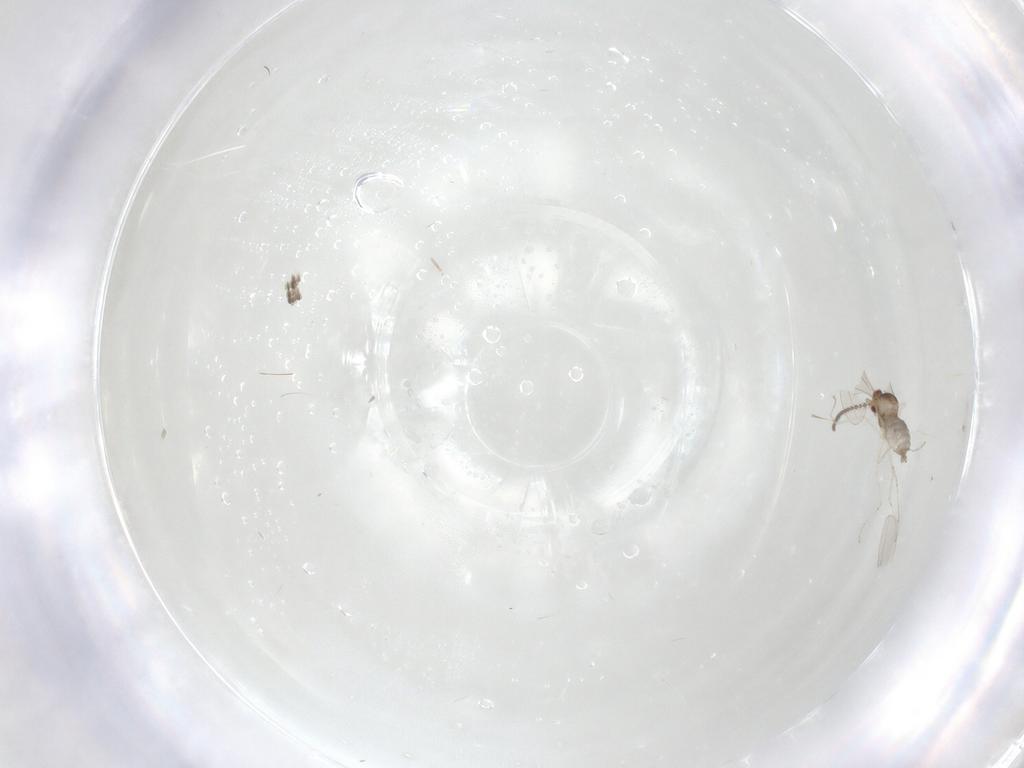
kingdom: Animalia
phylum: Arthropoda
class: Insecta
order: Diptera
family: Cecidomyiidae
